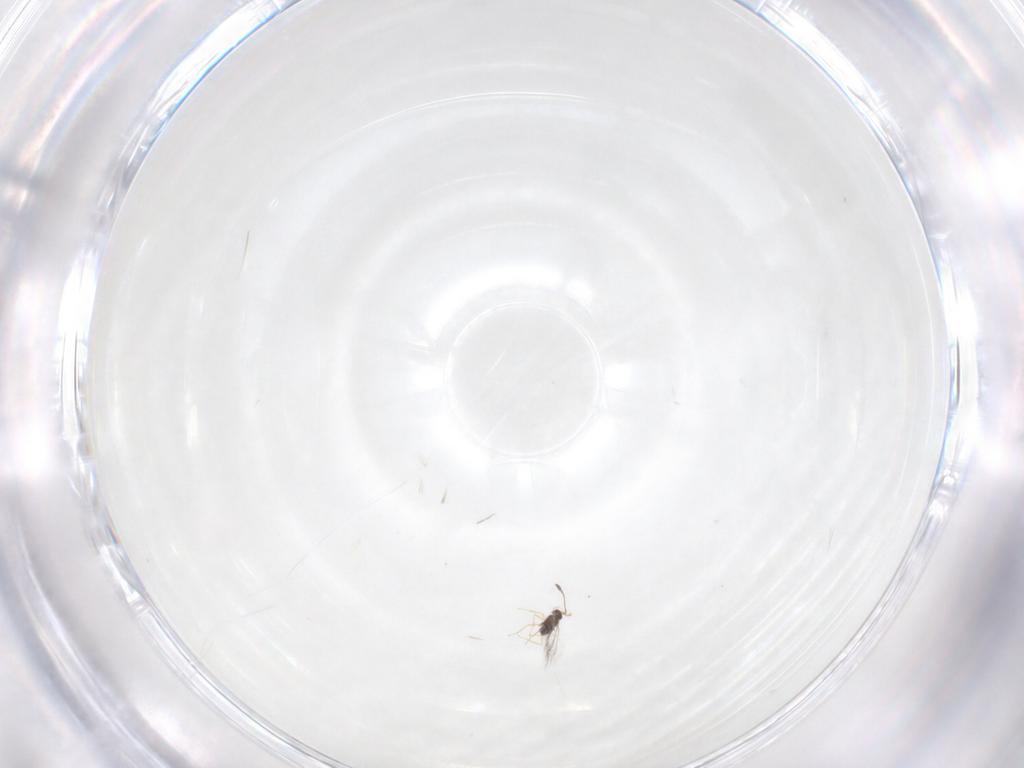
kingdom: Animalia
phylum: Arthropoda
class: Insecta
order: Hymenoptera
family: Mymaridae
